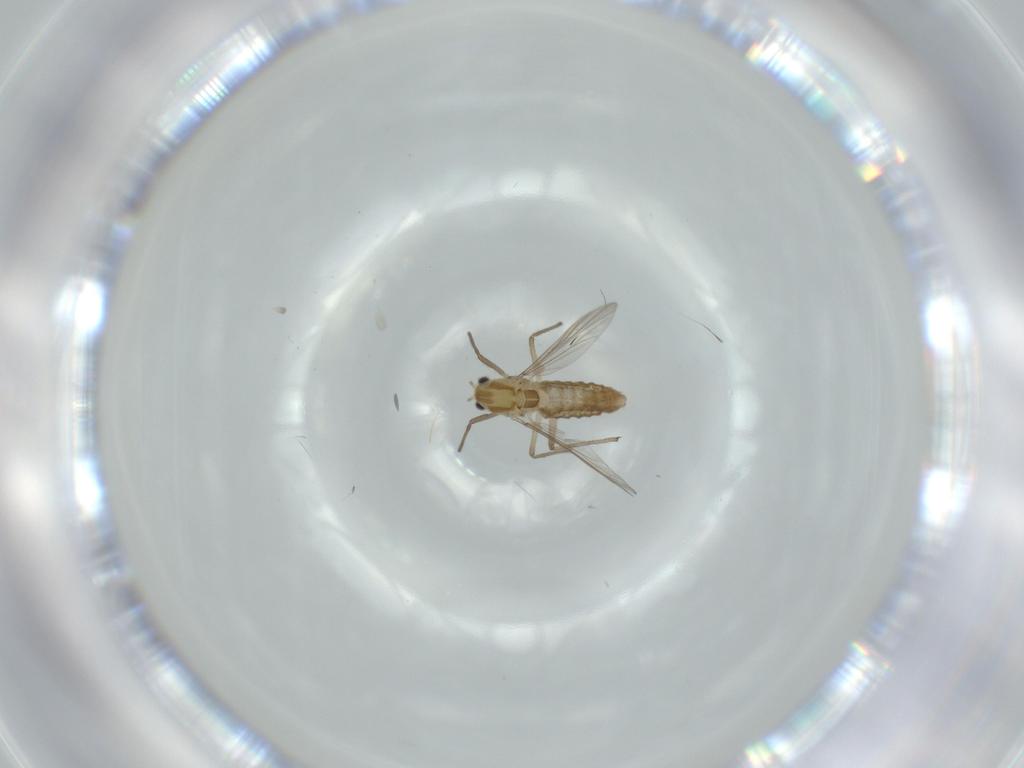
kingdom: Animalia
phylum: Arthropoda
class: Insecta
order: Diptera
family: Chironomidae
